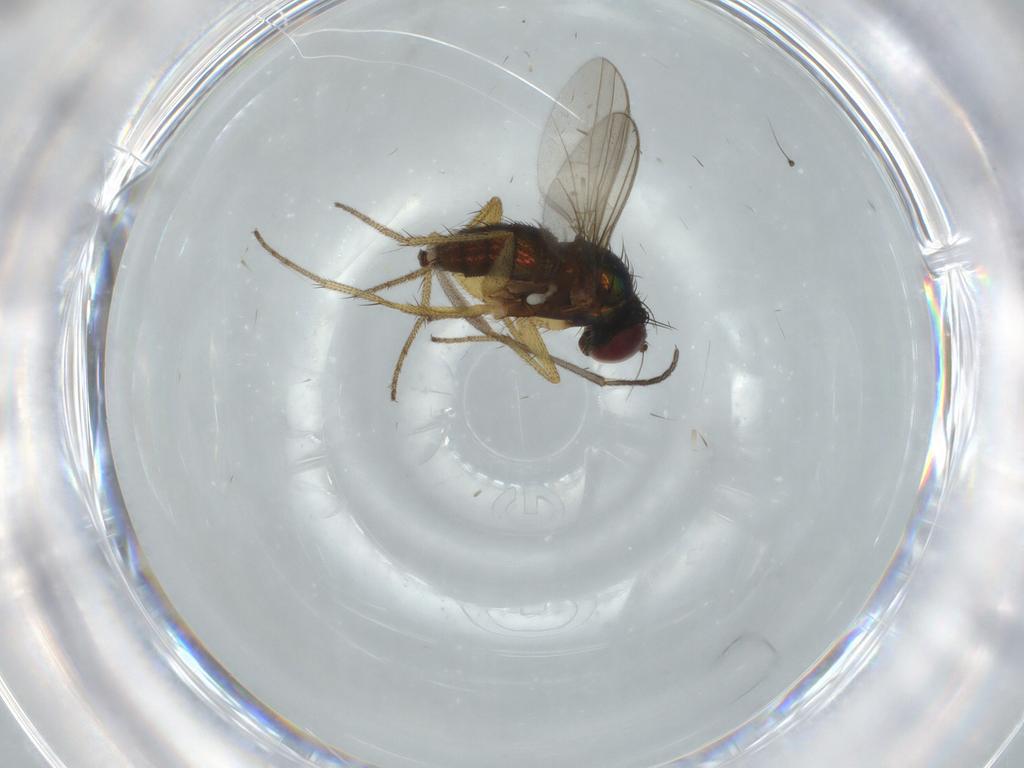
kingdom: Animalia
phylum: Arthropoda
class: Insecta
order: Diptera
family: Sciaridae
